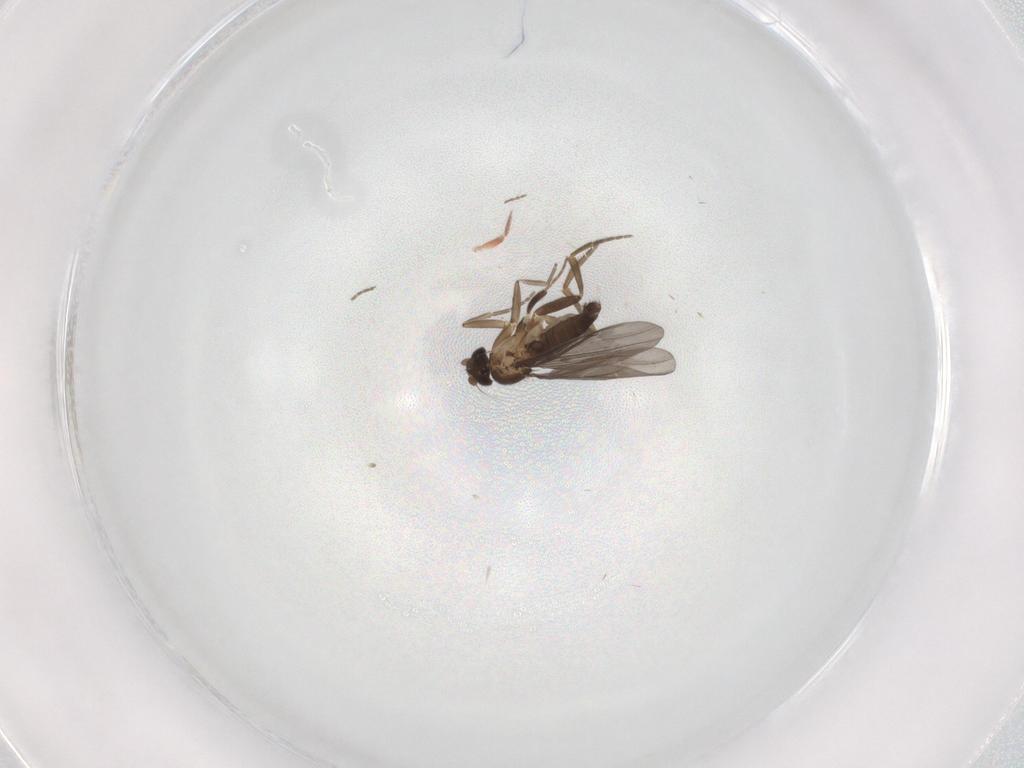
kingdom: Animalia
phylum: Arthropoda
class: Insecta
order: Diptera
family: Phoridae
